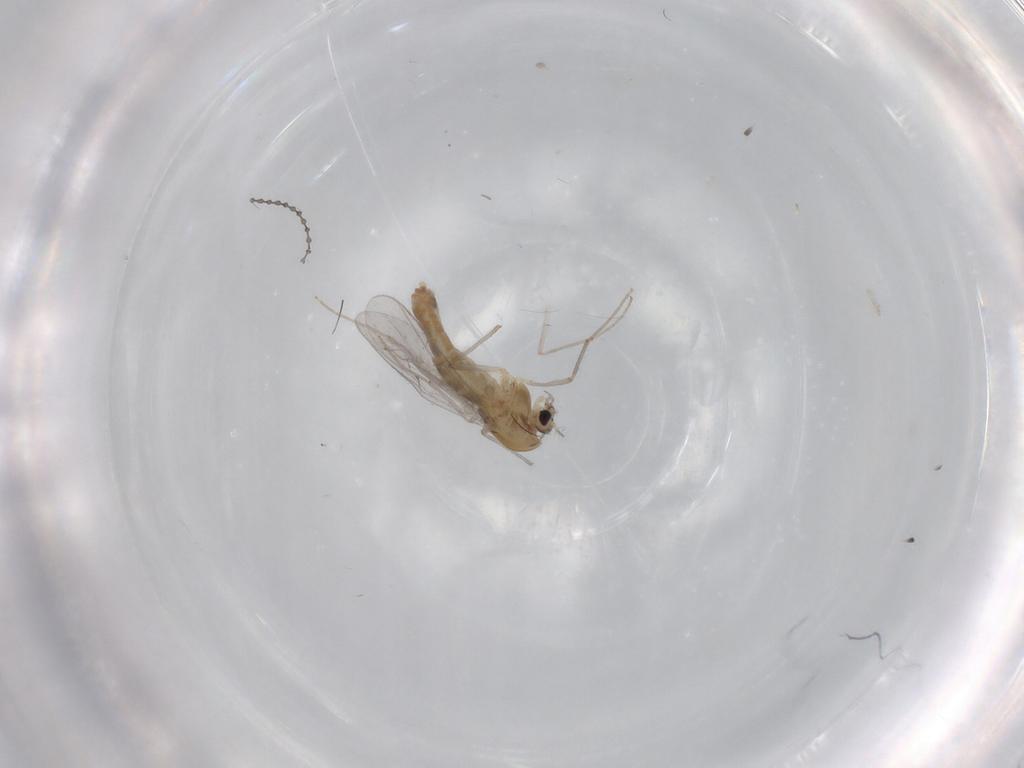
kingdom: Animalia
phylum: Arthropoda
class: Insecta
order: Diptera
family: Chironomidae
